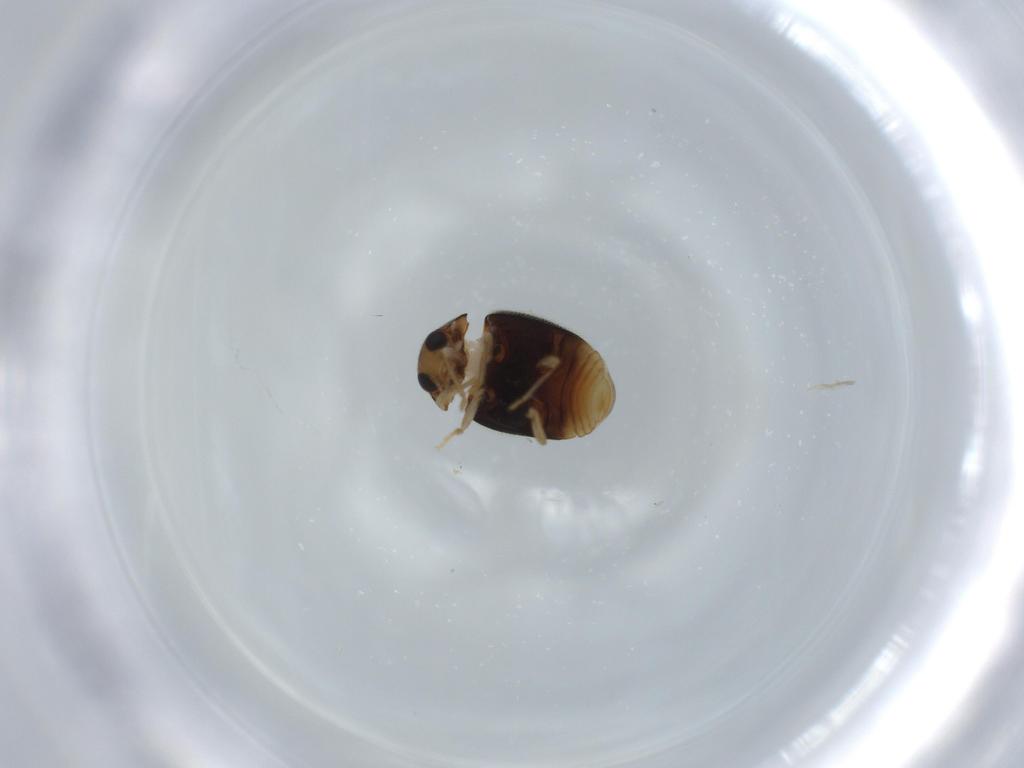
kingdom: Animalia
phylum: Arthropoda
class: Insecta
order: Coleoptera
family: Coccinellidae
